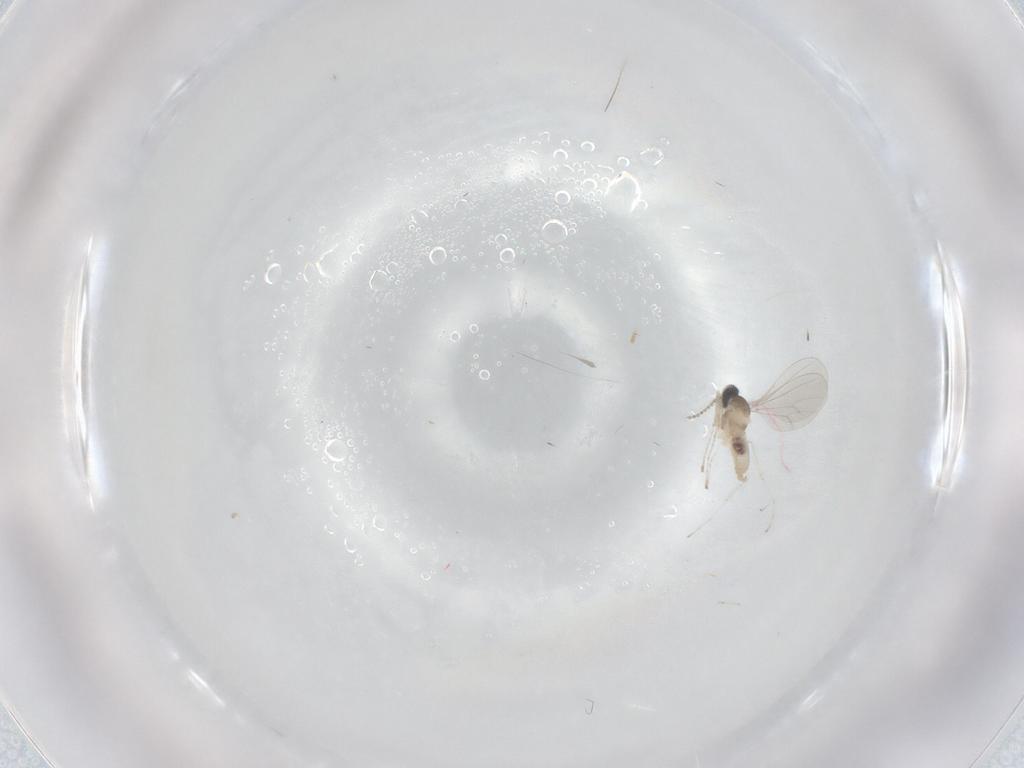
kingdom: Animalia
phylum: Arthropoda
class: Insecta
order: Diptera
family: Cecidomyiidae
